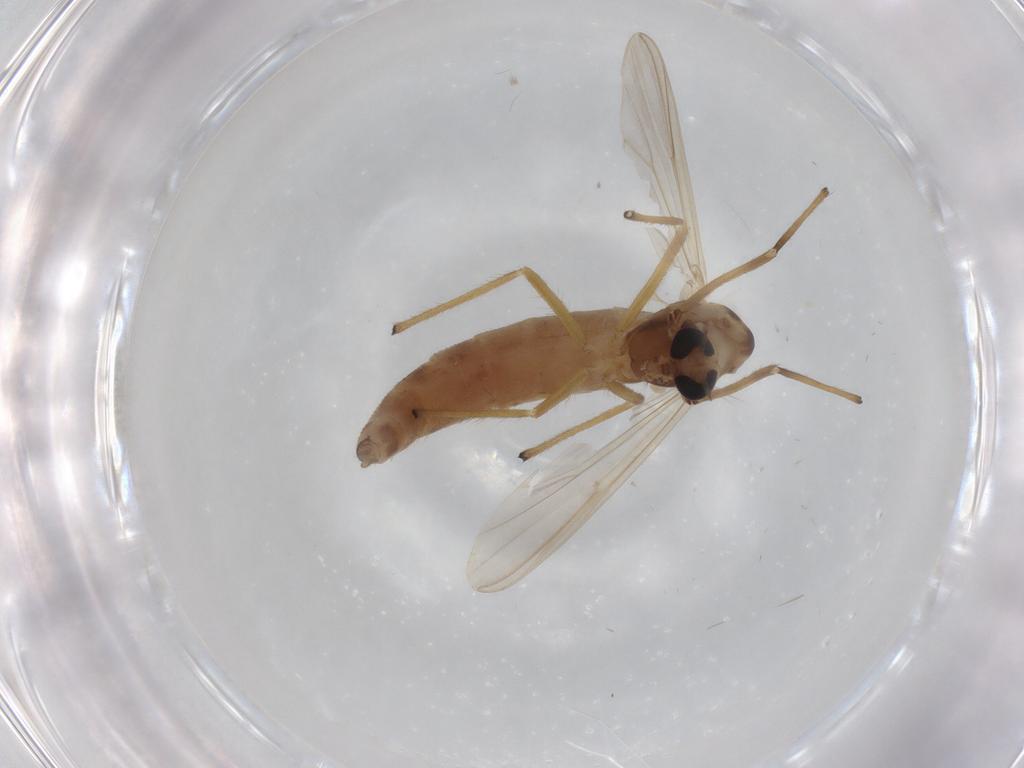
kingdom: Animalia
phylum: Arthropoda
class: Insecta
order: Diptera
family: Chironomidae
